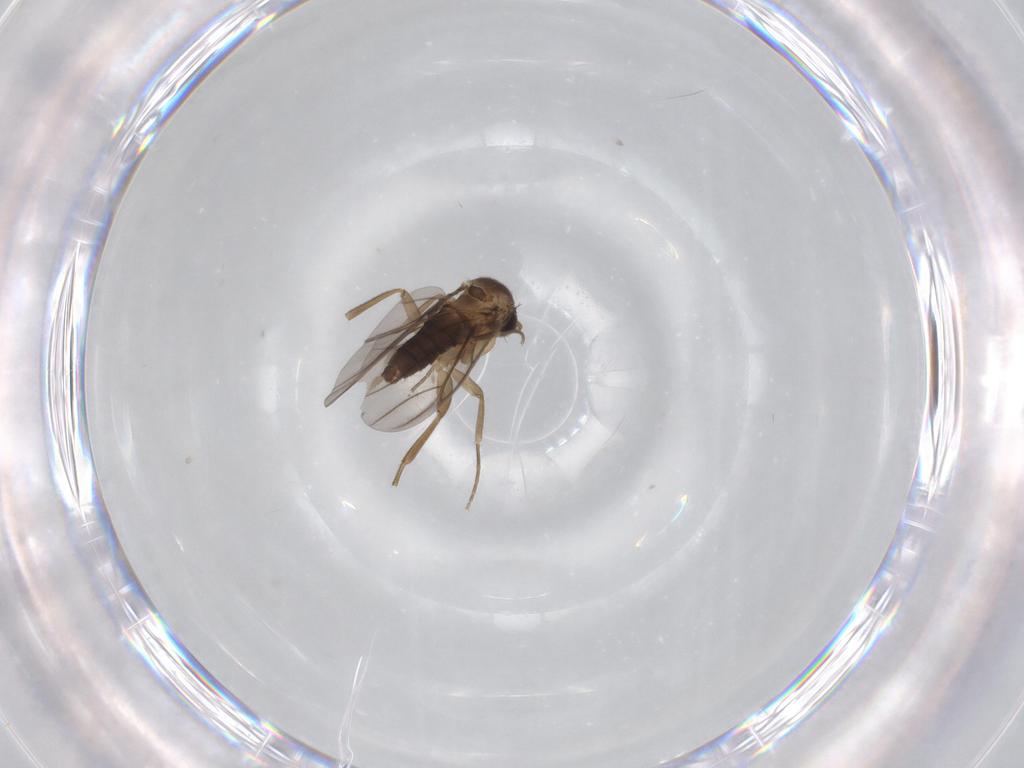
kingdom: Animalia
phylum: Arthropoda
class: Insecta
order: Diptera
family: Phoridae
